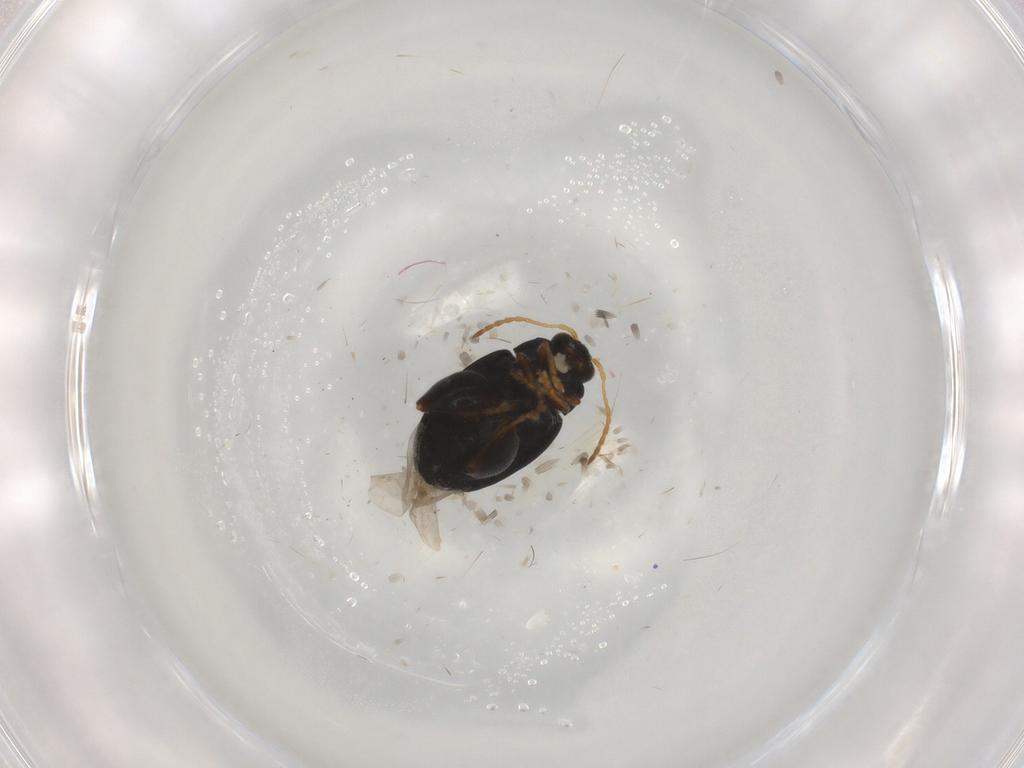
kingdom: Animalia
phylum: Arthropoda
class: Insecta
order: Coleoptera
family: Chrysomelidae
